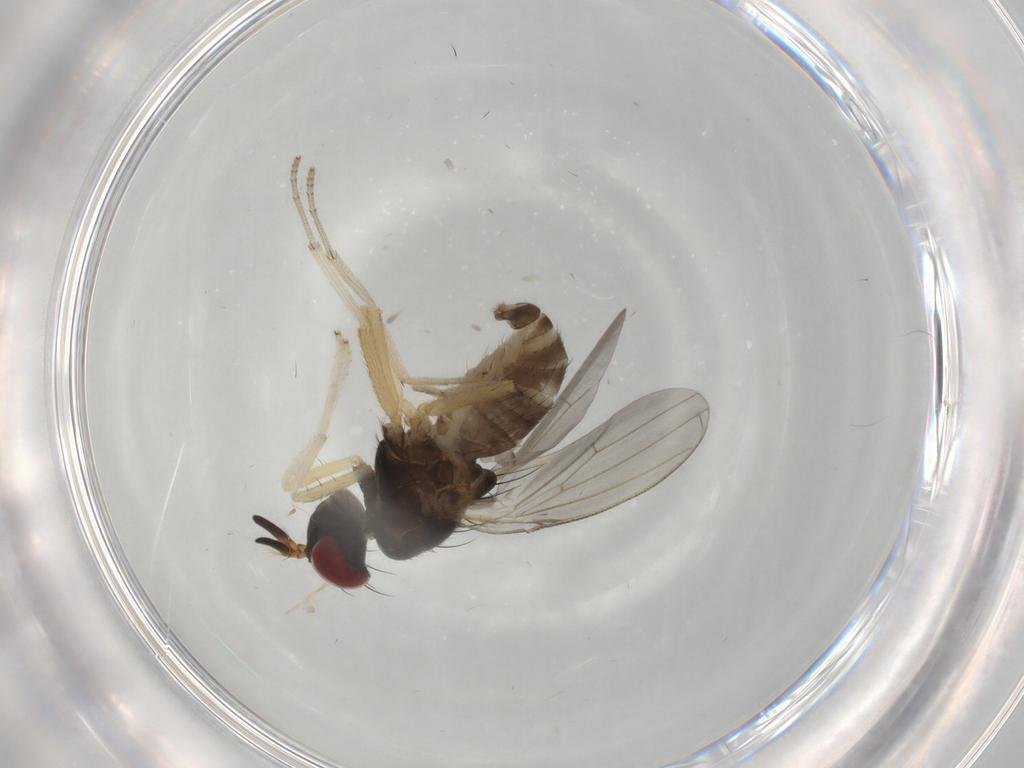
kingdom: Animalia
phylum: Arthropoda
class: Insecta
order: Diptera
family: Lauxaniidae
